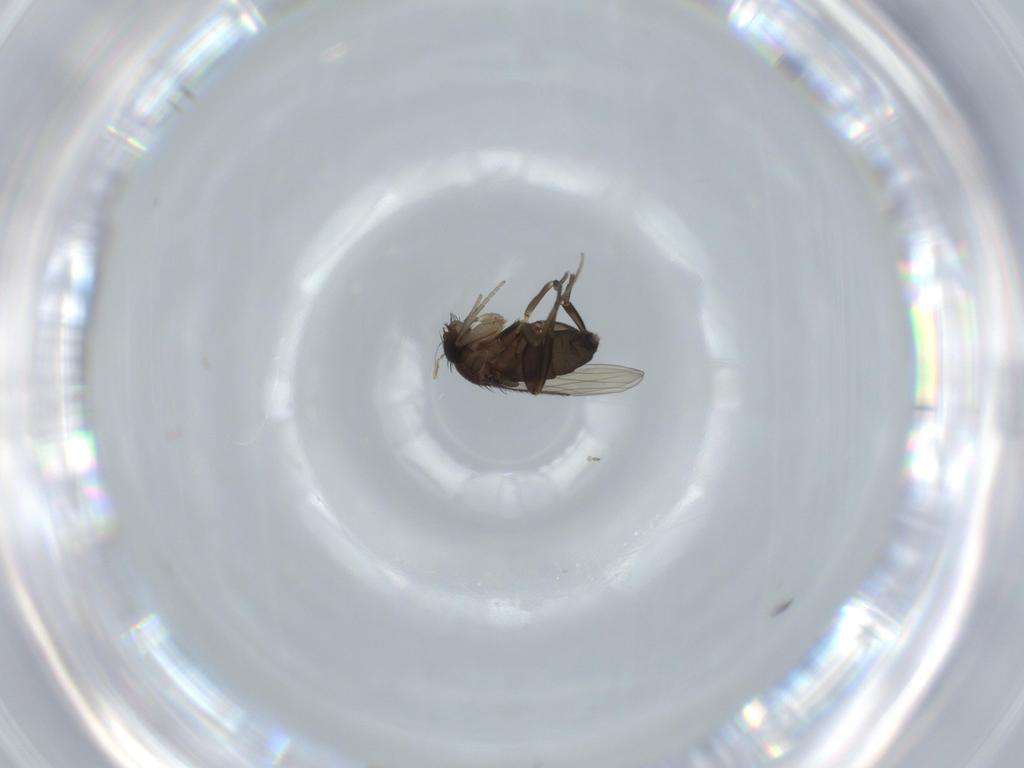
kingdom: Animalia
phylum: Arthropoda
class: Insecta
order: Diptera
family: Phoridae
